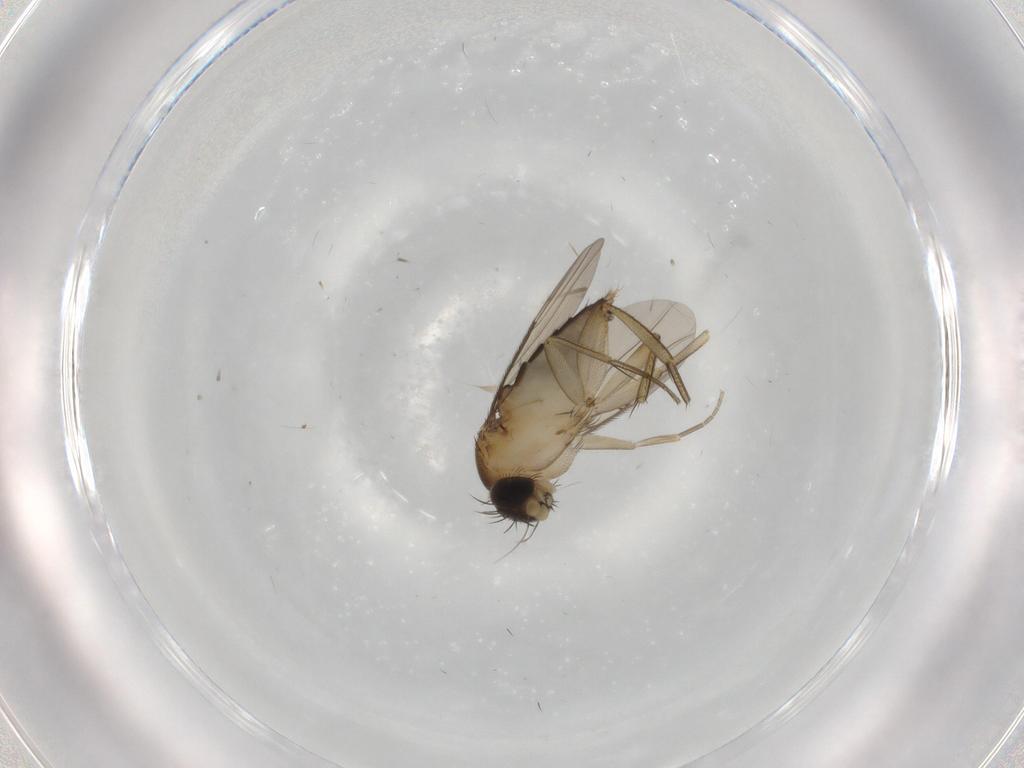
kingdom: Animalia
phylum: Arthropoda
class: Insecta
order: Diptera
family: Phoridae
